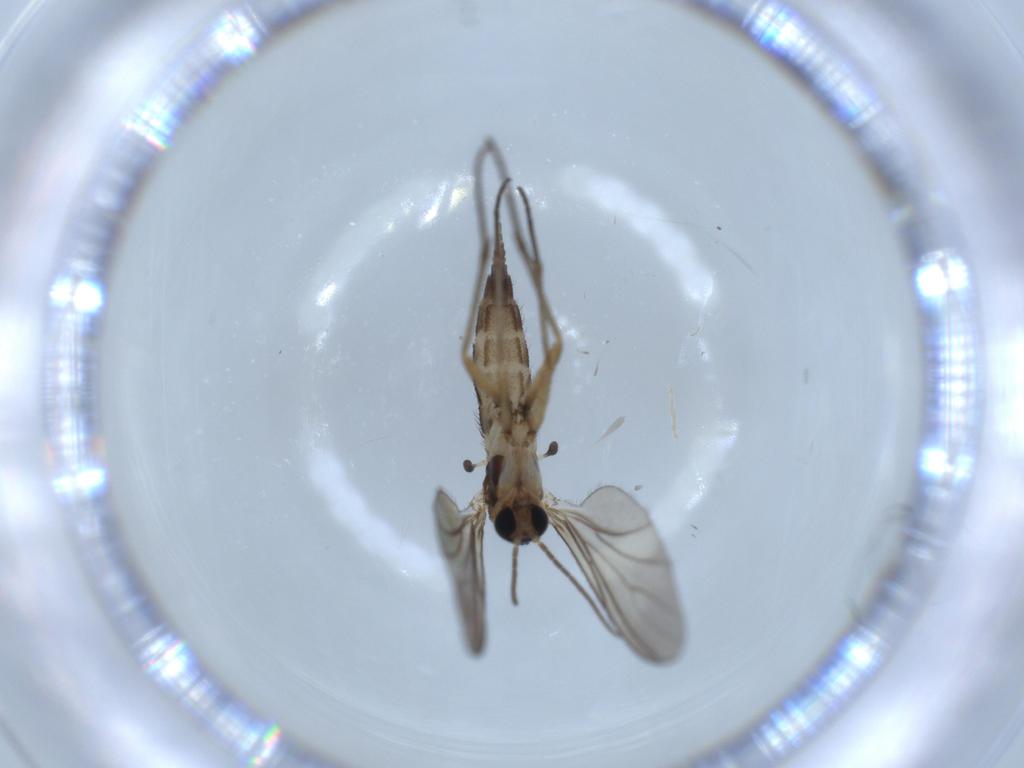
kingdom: Animalia
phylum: Arthropoda
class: Insecta
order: Diptera
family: Sciaridae
